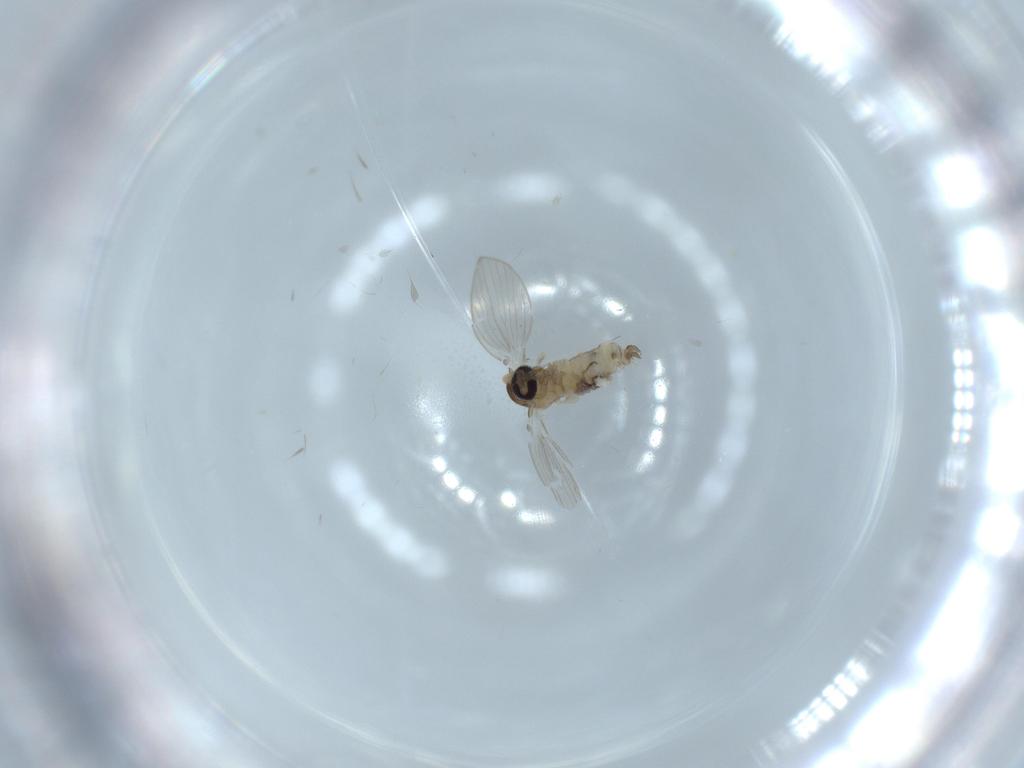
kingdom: Animalia
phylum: Arthropoda
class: Insecta
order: Diptera
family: Psychodidae
